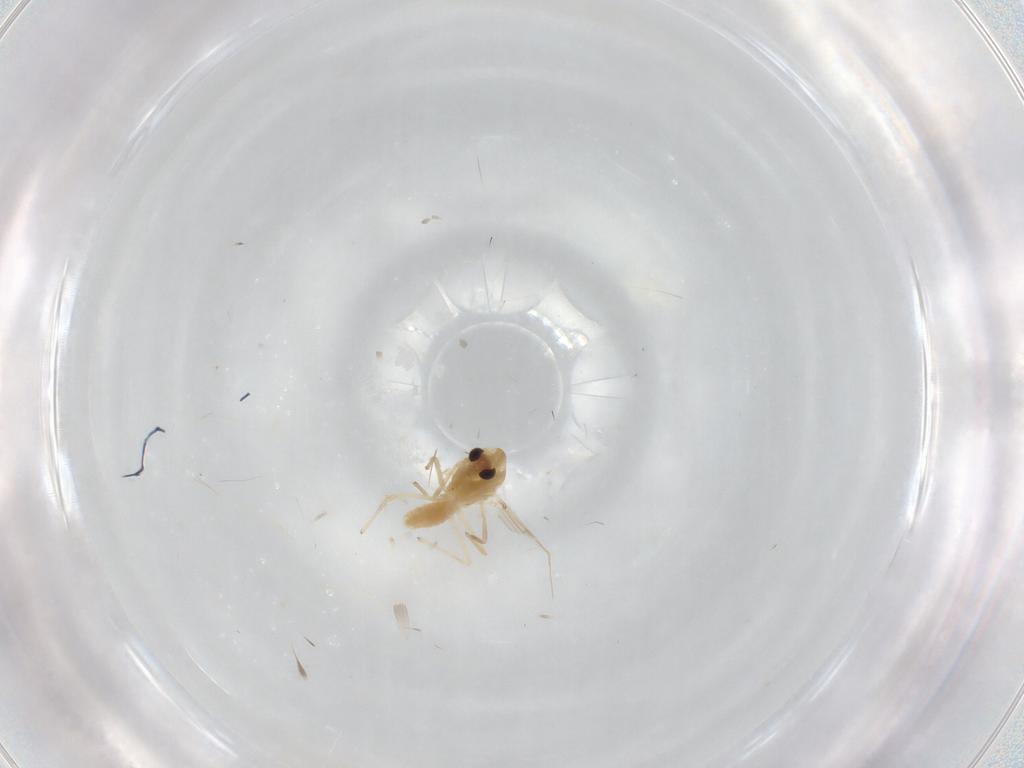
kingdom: Animalia
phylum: Arthropoda
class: Insecta
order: Diptera
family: Chironomidae
